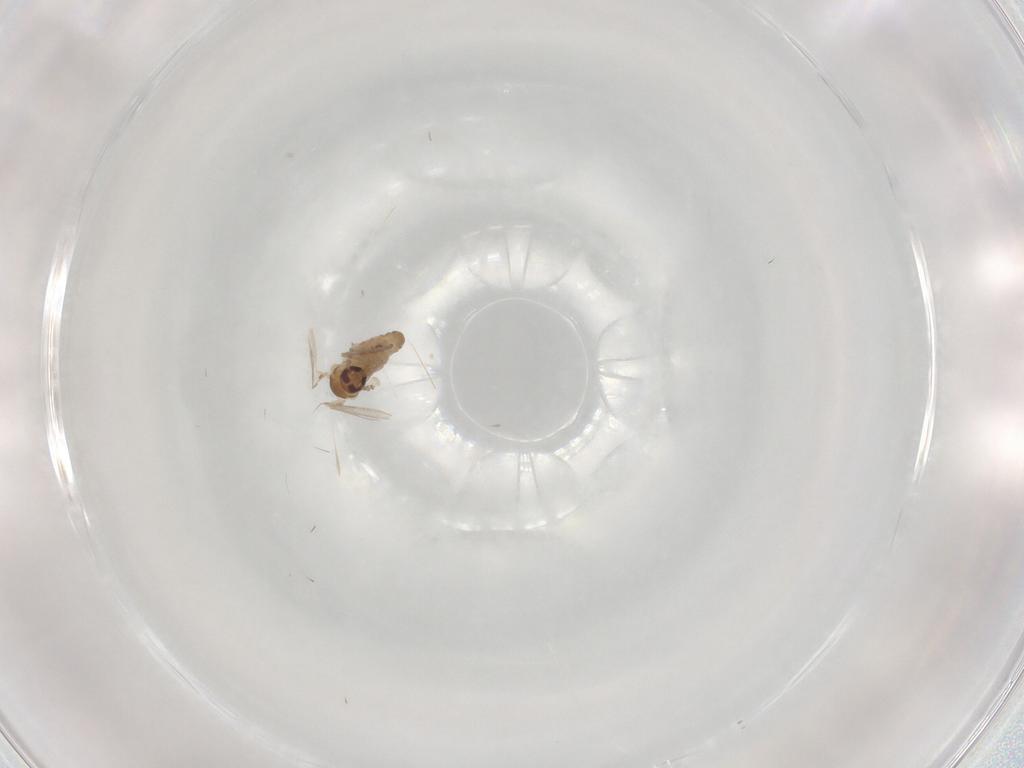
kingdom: Animalia
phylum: Arthropoda
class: Insecta
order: Diptera
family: Psychodidae
